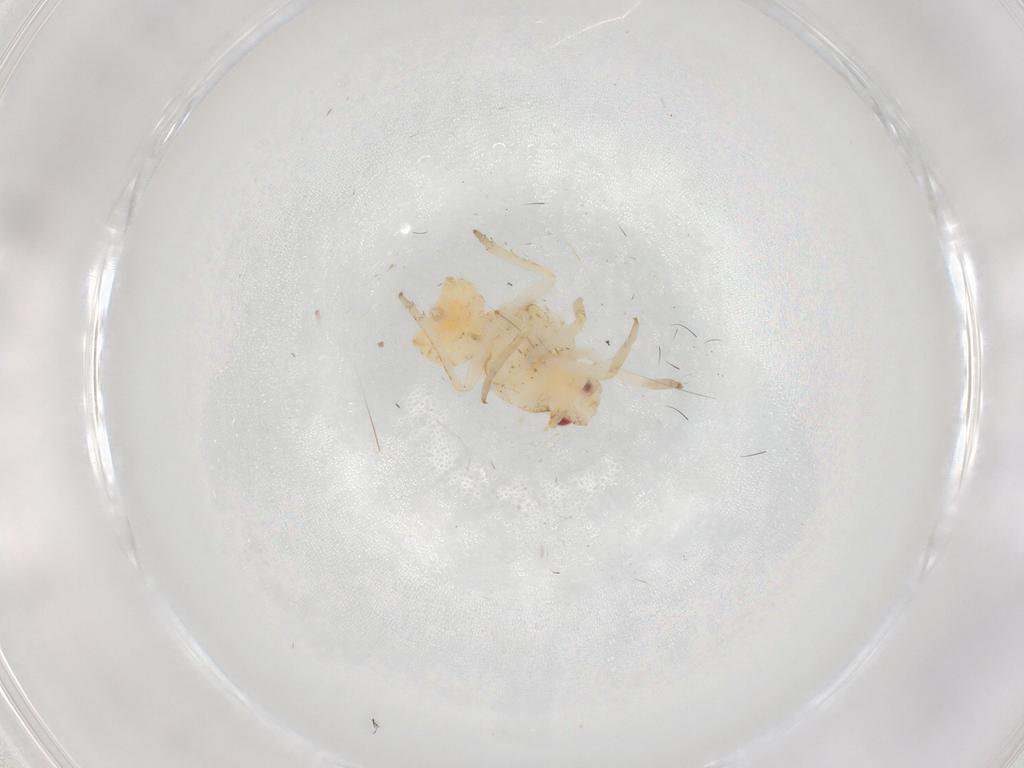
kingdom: Animalia
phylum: Arthropoda
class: Insecta
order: Hemiptera
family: Flatidae
